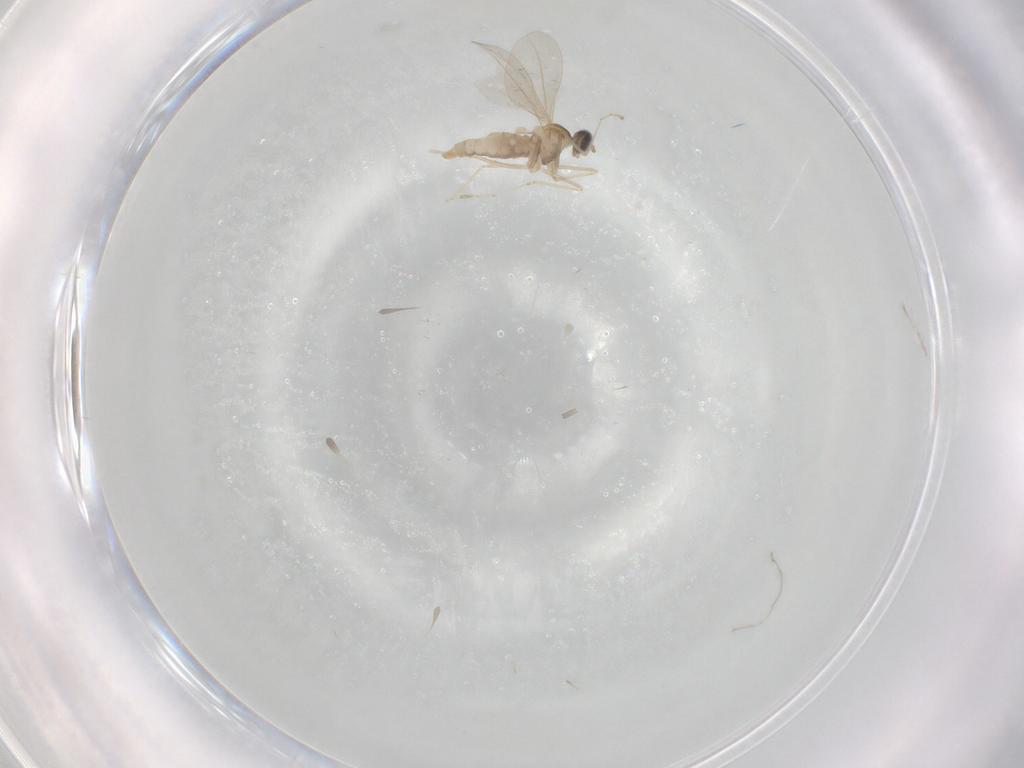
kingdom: Animalia
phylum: Arthropoda
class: Insecta
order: Diptera
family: Cecidomyiidae
